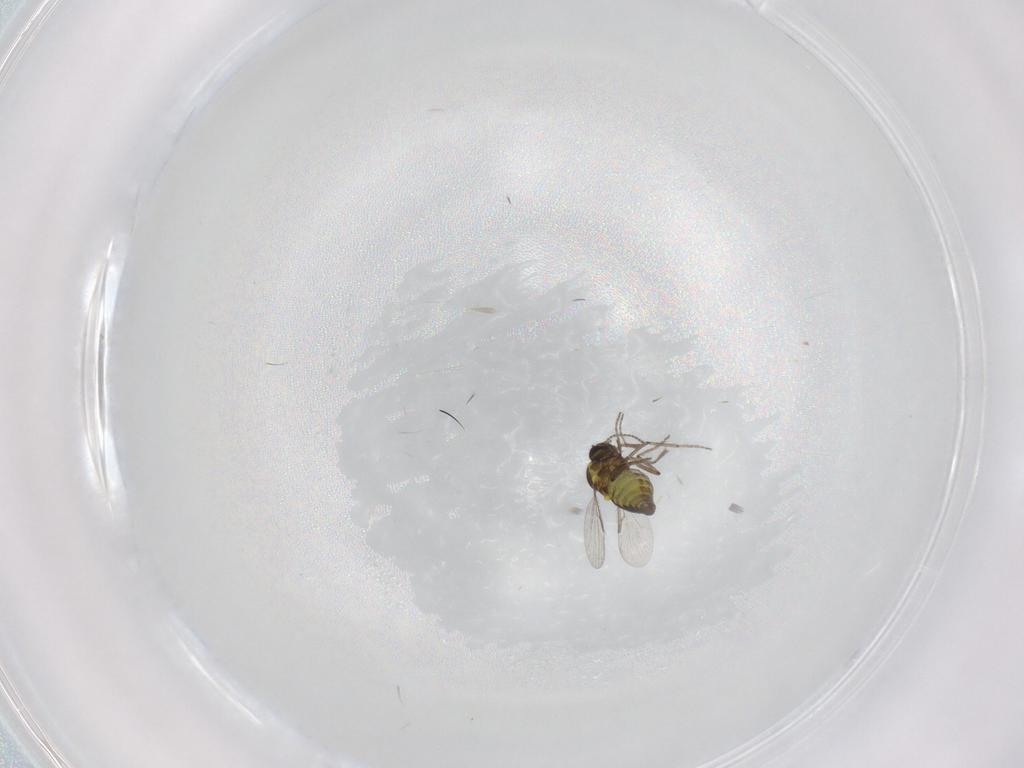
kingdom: Animalia
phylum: Arthropoda
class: Insecta
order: Diptera
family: Ceratopogonidae
